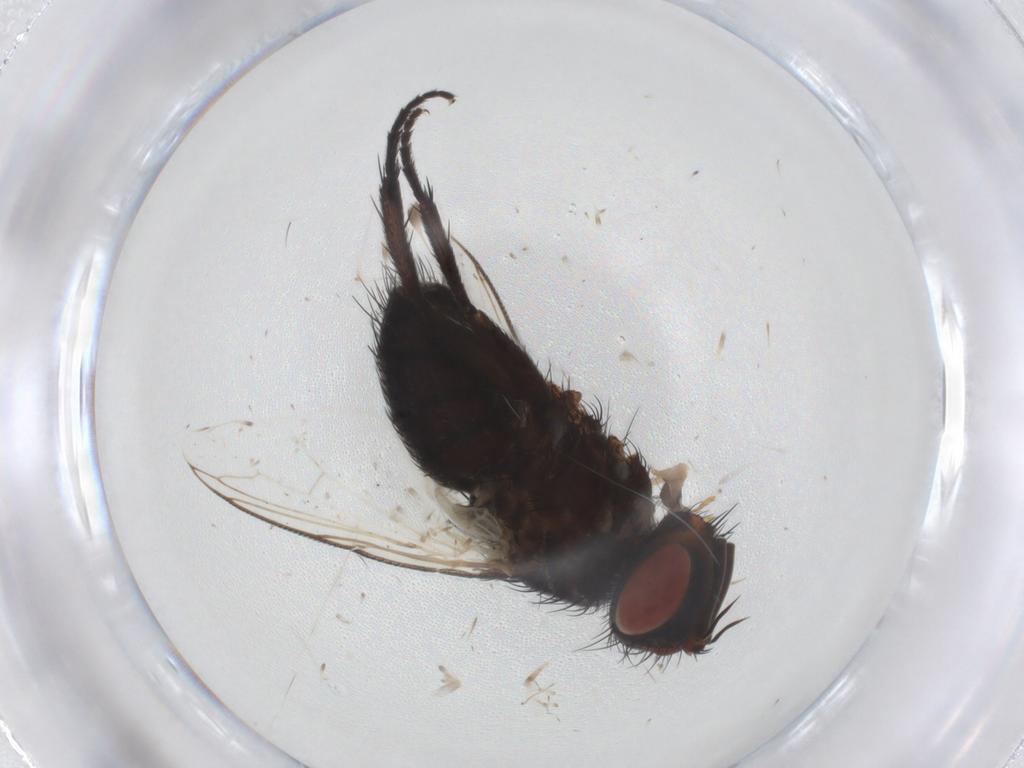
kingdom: Animalia
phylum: Arthropoda
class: Insecta
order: Diptera
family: Tachinidae
